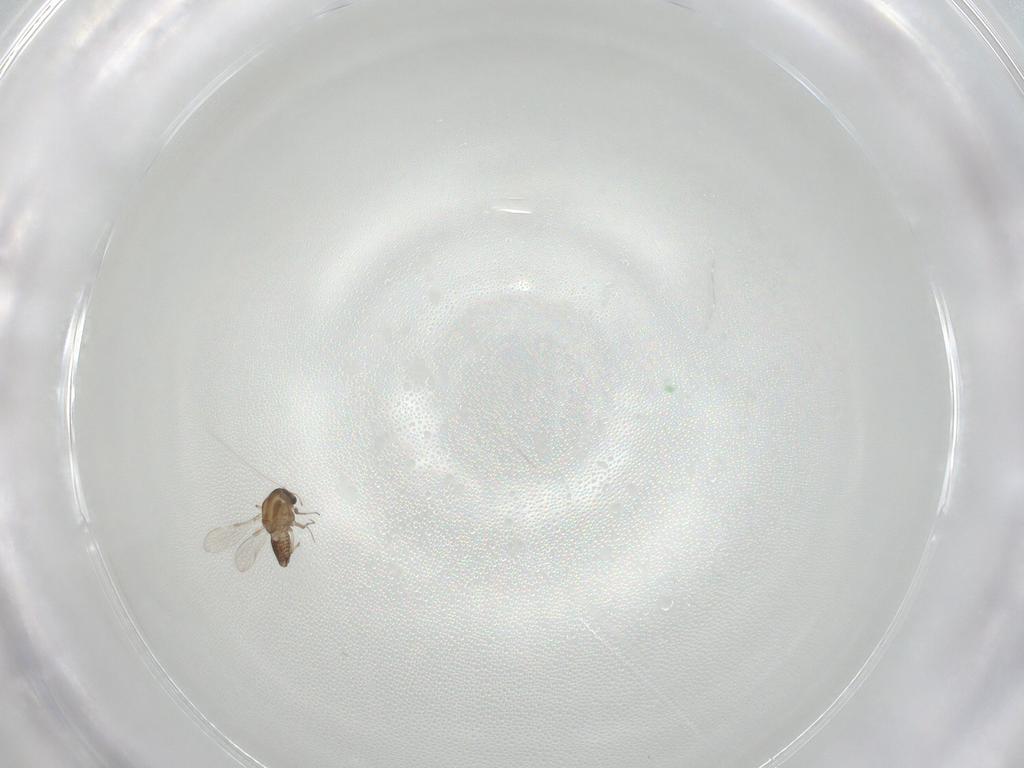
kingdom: Animalia
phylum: Arthropoda
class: Insecta
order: Diptera
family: Chironomidae
